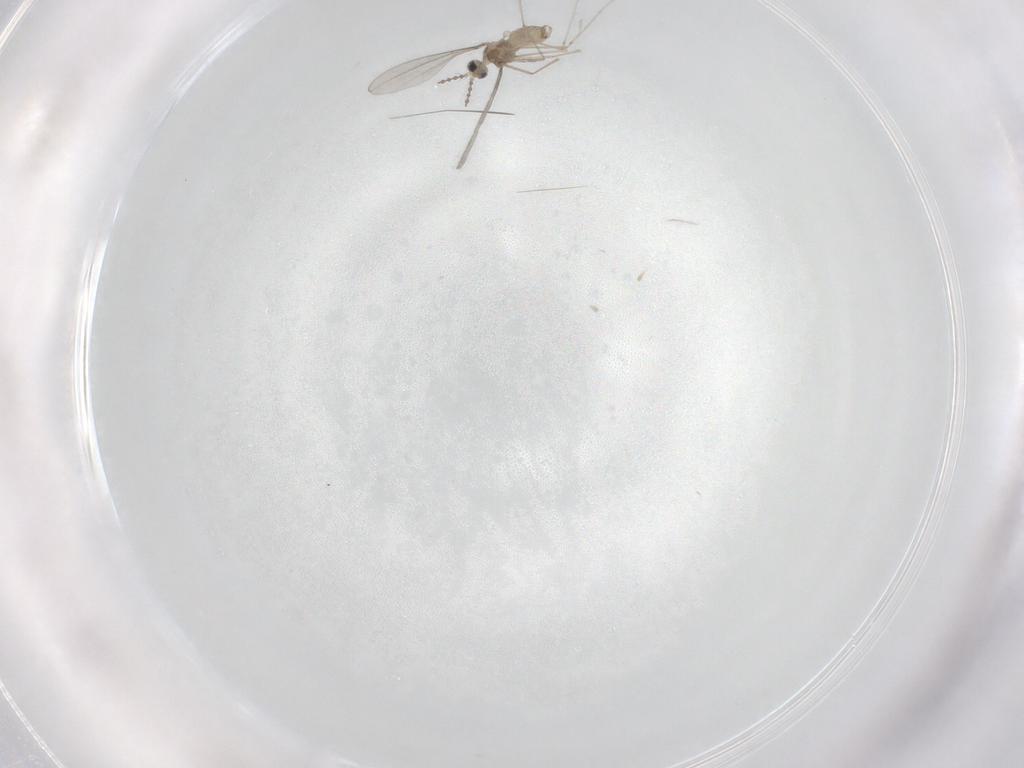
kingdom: Animalia
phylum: Arthropoda
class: Insecta
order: Diptera
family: Cecidomyiidae
